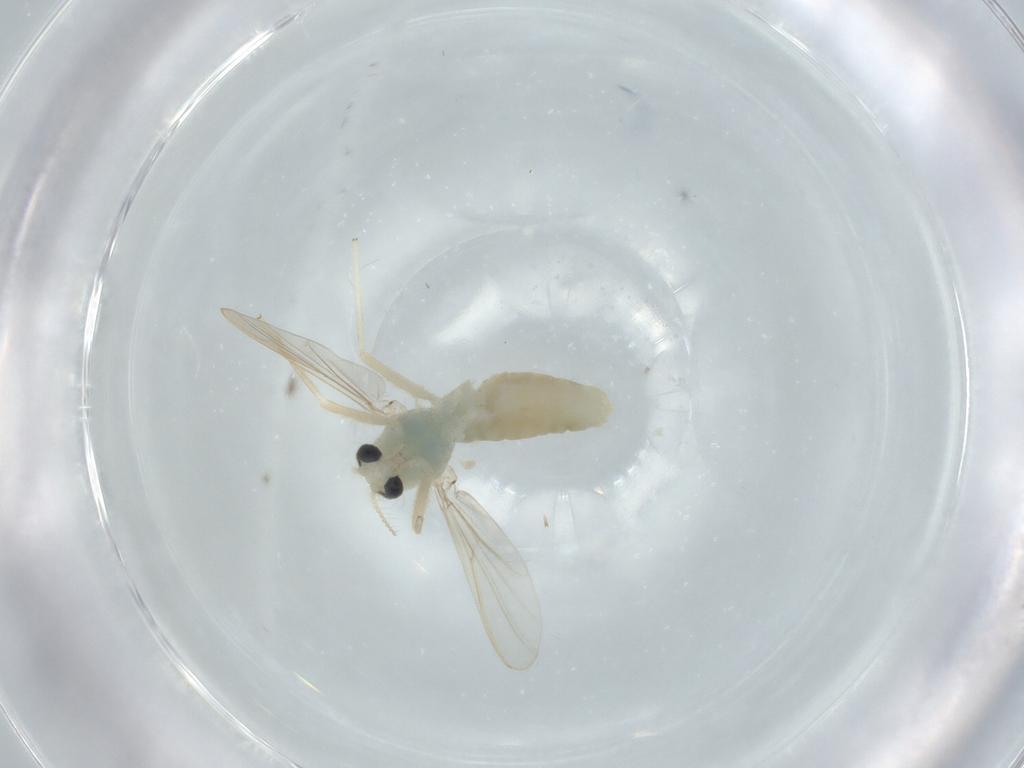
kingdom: Animalia
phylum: Arthropoda
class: Insecta
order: Diptera
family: Chironomidae
